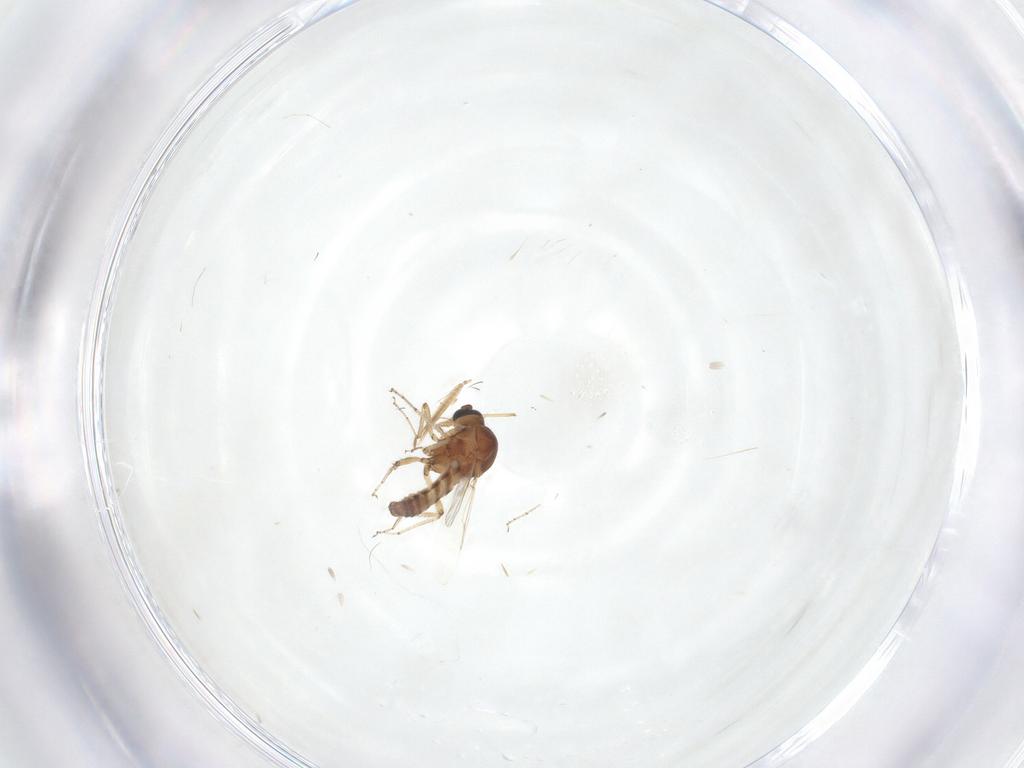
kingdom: Animalia
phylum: Arthropoda
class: Insecta
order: Diptera
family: Ceratopogonidae
